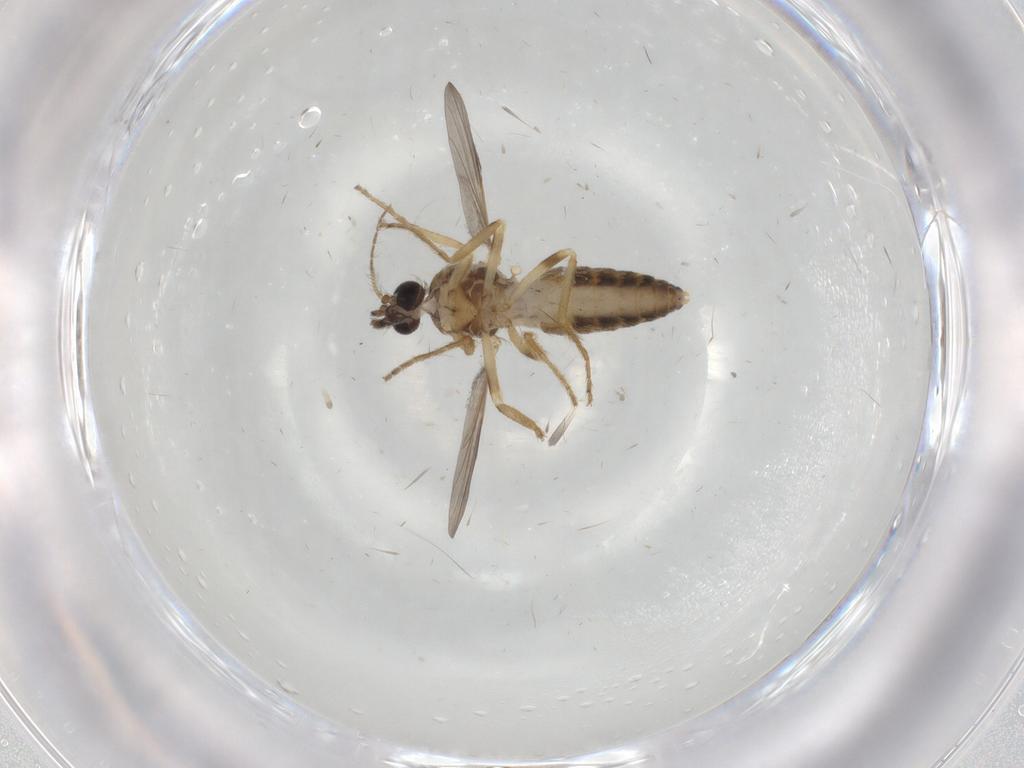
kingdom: Animalia
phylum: Arthropoda
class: Insecta
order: Diptera
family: Ceratopogonidae
